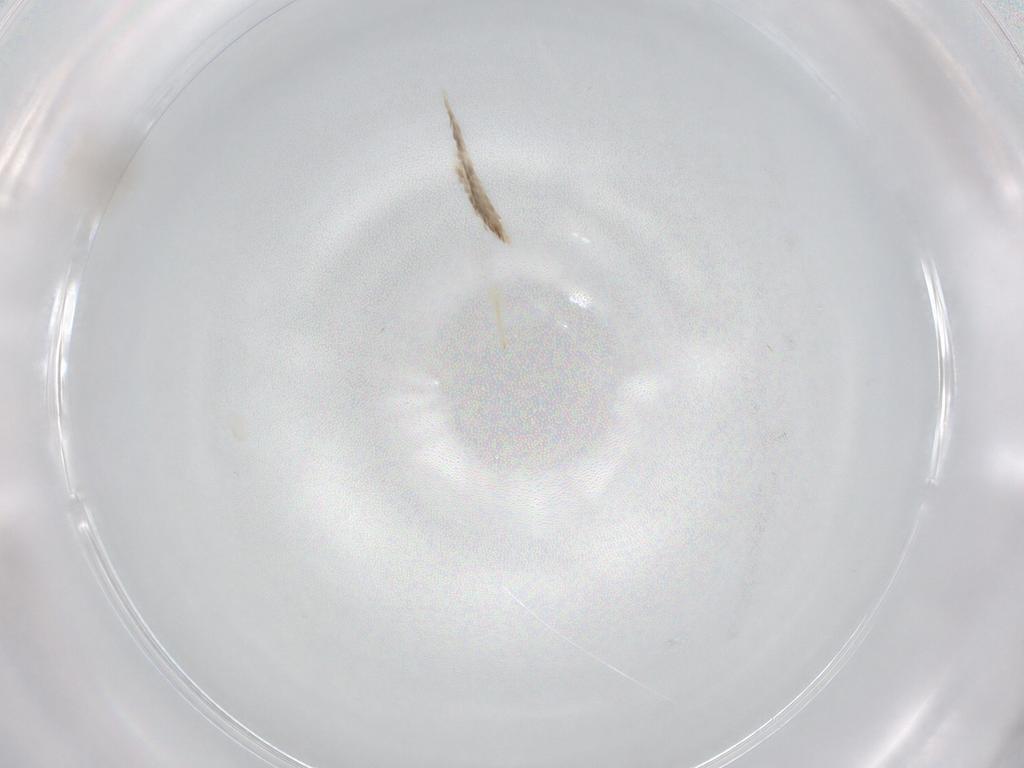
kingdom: Animalia
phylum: Arthropoda
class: Insecta
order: Diptera
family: Cecidomyiidae
